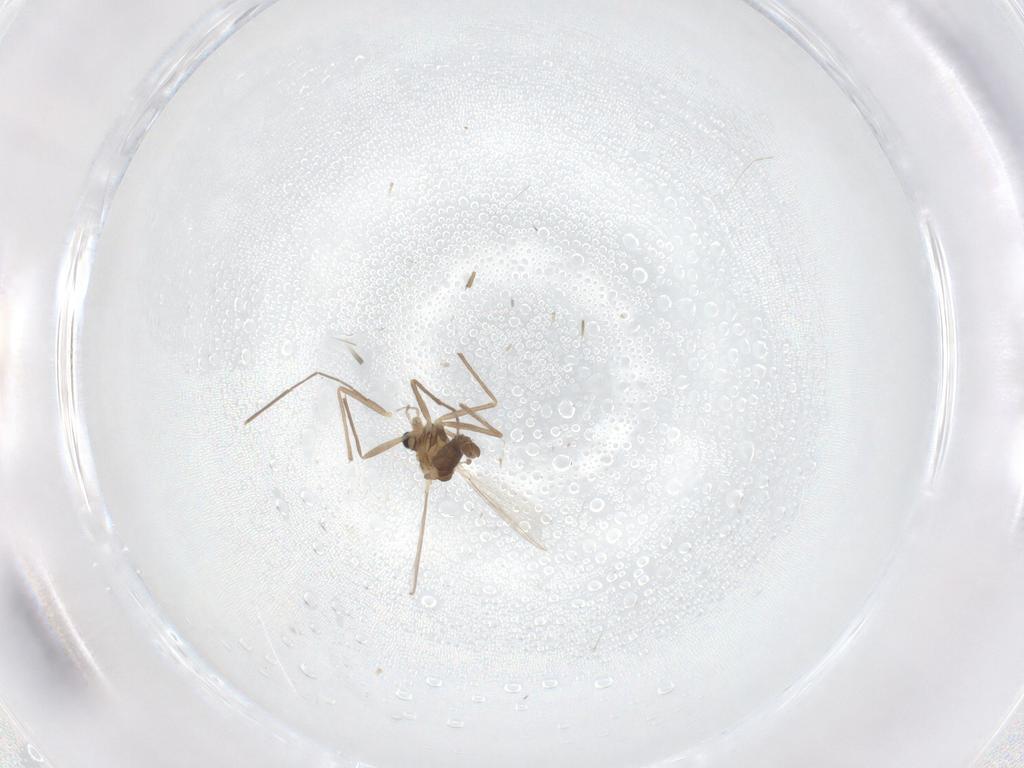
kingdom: Animalia
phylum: Arthropoda
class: Insecta
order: Diptera
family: Chironomidae
